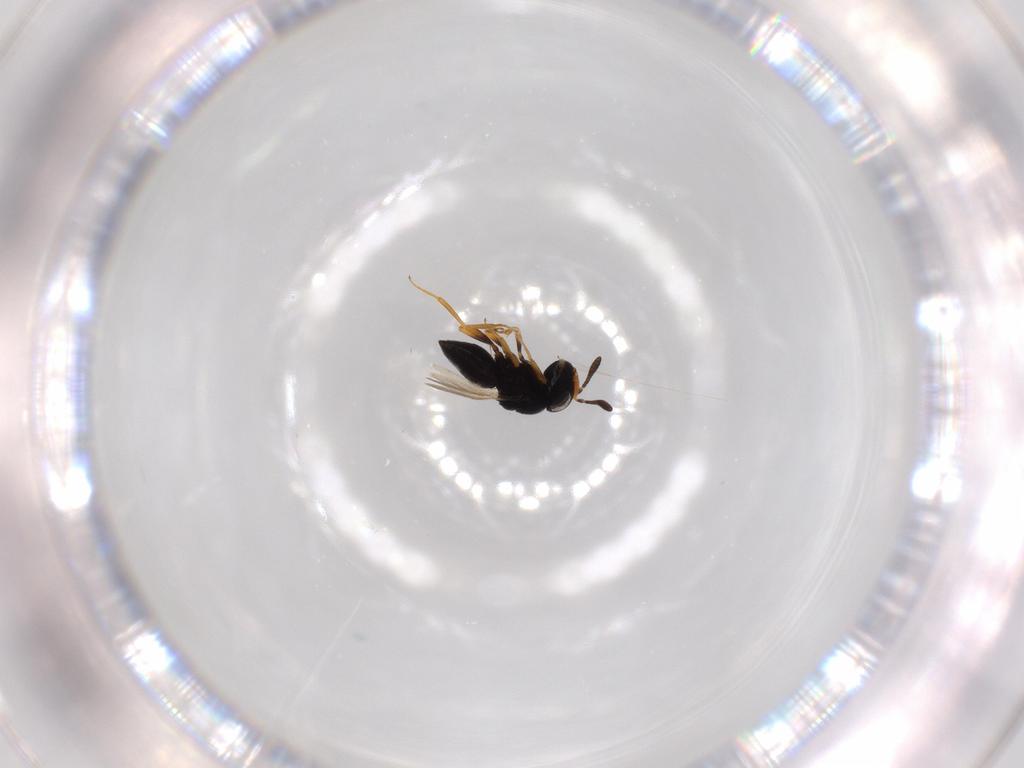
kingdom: Animalia
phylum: Arthropoda
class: Insecta
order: Hymenoptera
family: Scelionidae
